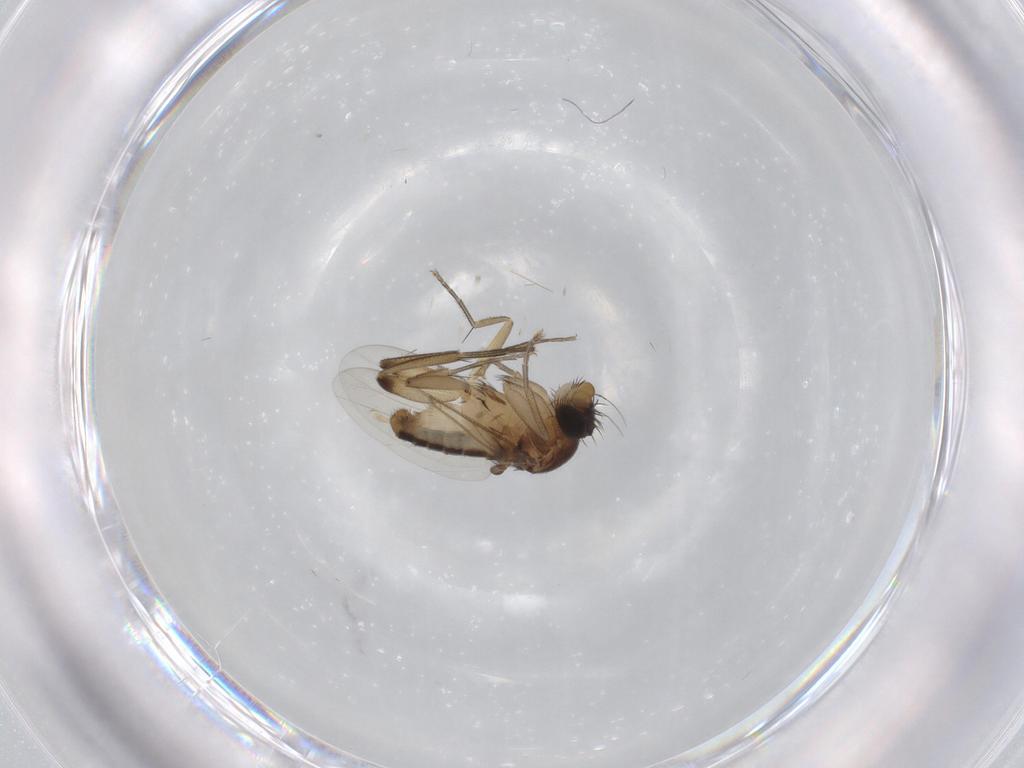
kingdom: Animalia
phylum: Arthropoda
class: Insecta
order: Diptera
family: Phoridae
